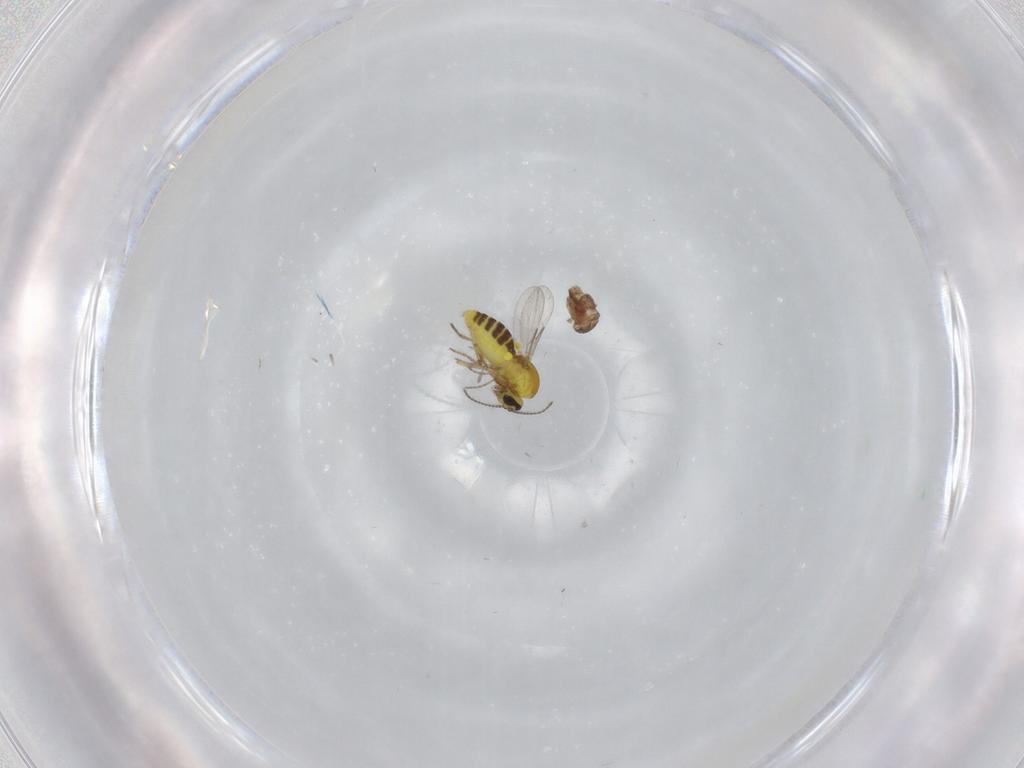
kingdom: Animalia
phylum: Arthropoda
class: Insecta
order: Diptera
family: Ceratopogonidae
